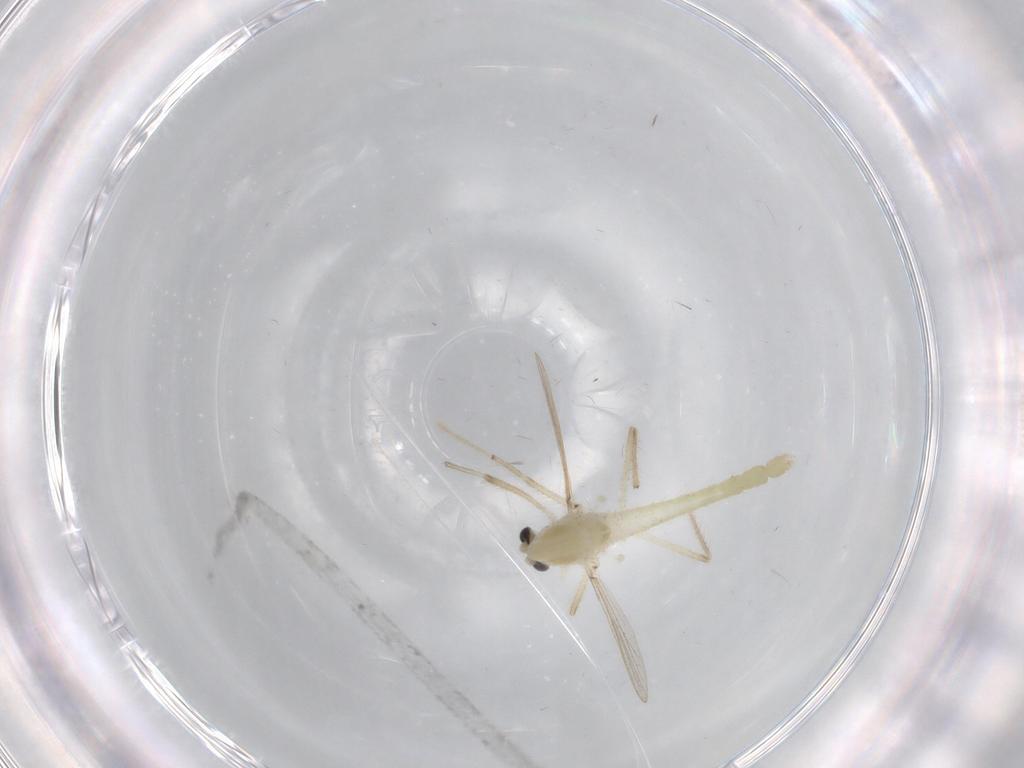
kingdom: Animalia
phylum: Arthropoda
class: Insecta
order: Diptera
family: Chironomidae
